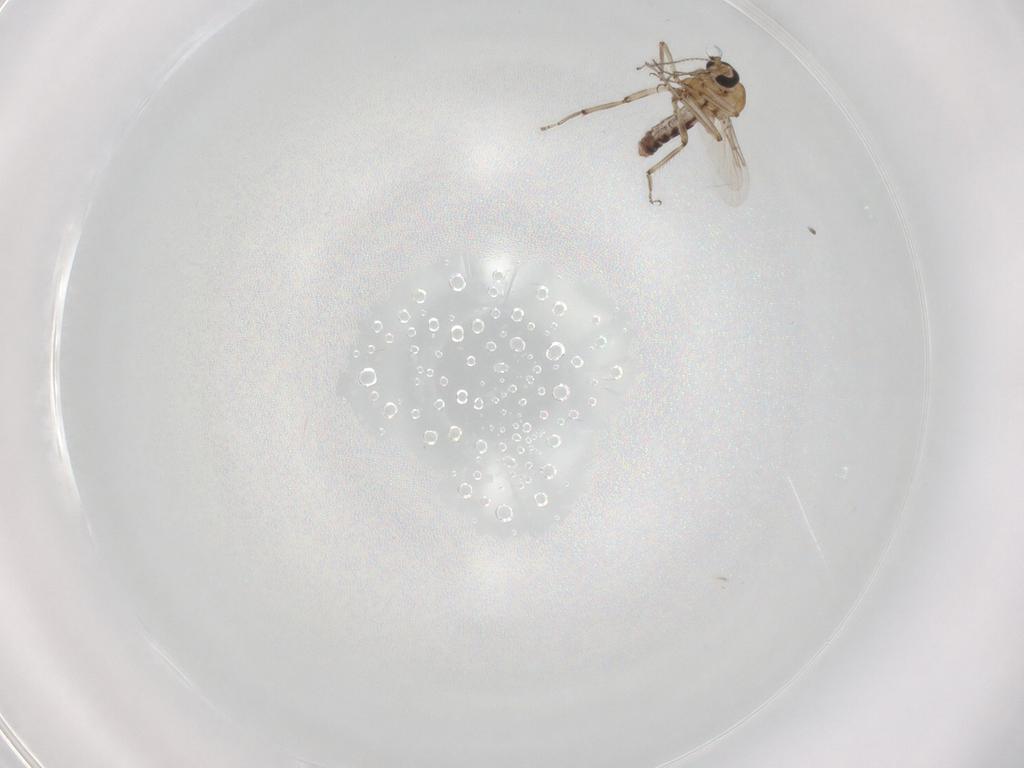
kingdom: Animalia
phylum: Arthropoda
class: Insecta
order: Diptera
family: Ceratopogonidae
